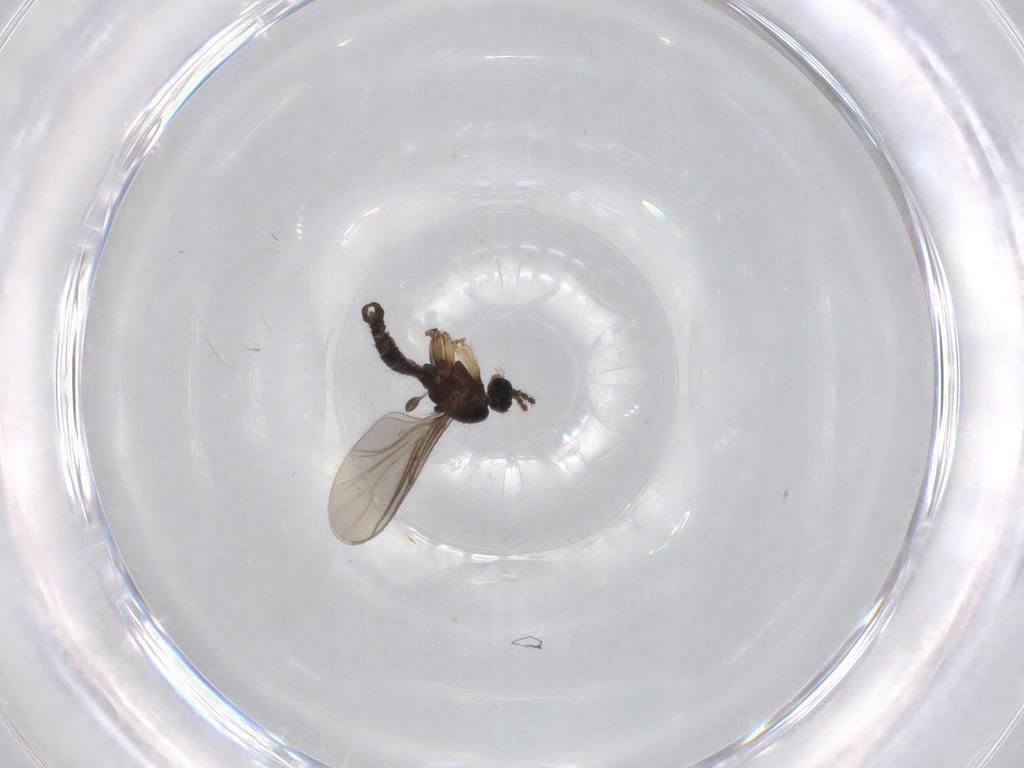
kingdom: Animalia
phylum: Arthropoda
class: Insecta
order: Diptera
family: Limoniidae
